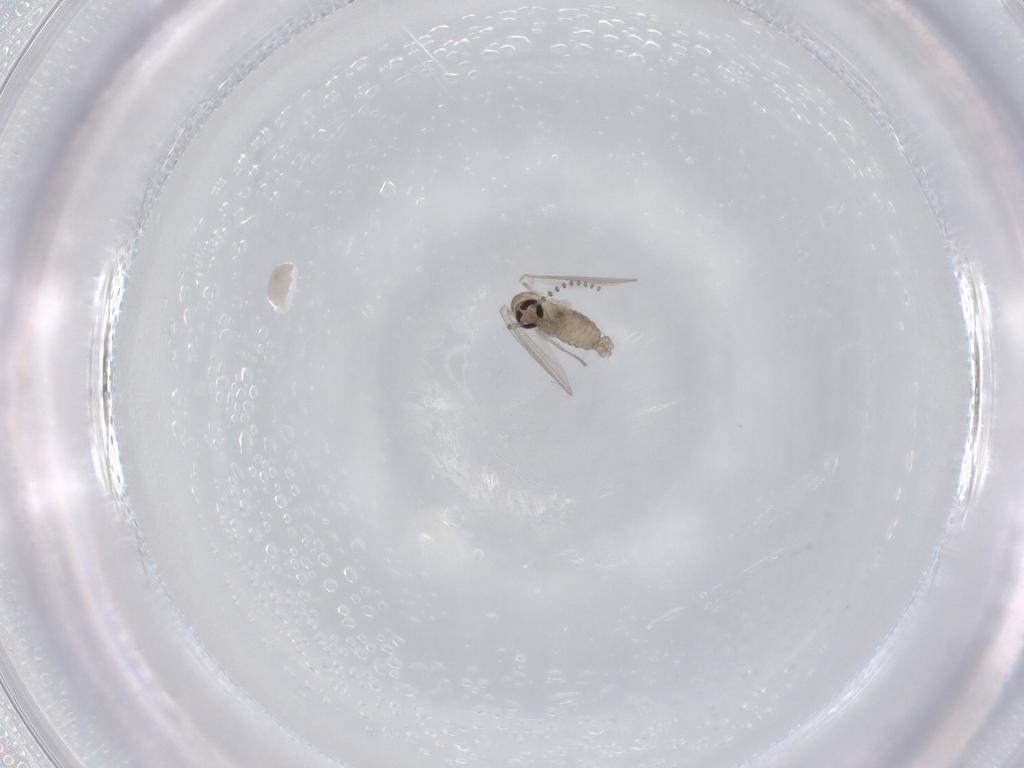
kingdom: Animalia
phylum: Arthropoda
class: Insecta
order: Diptera
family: Psychodidae
